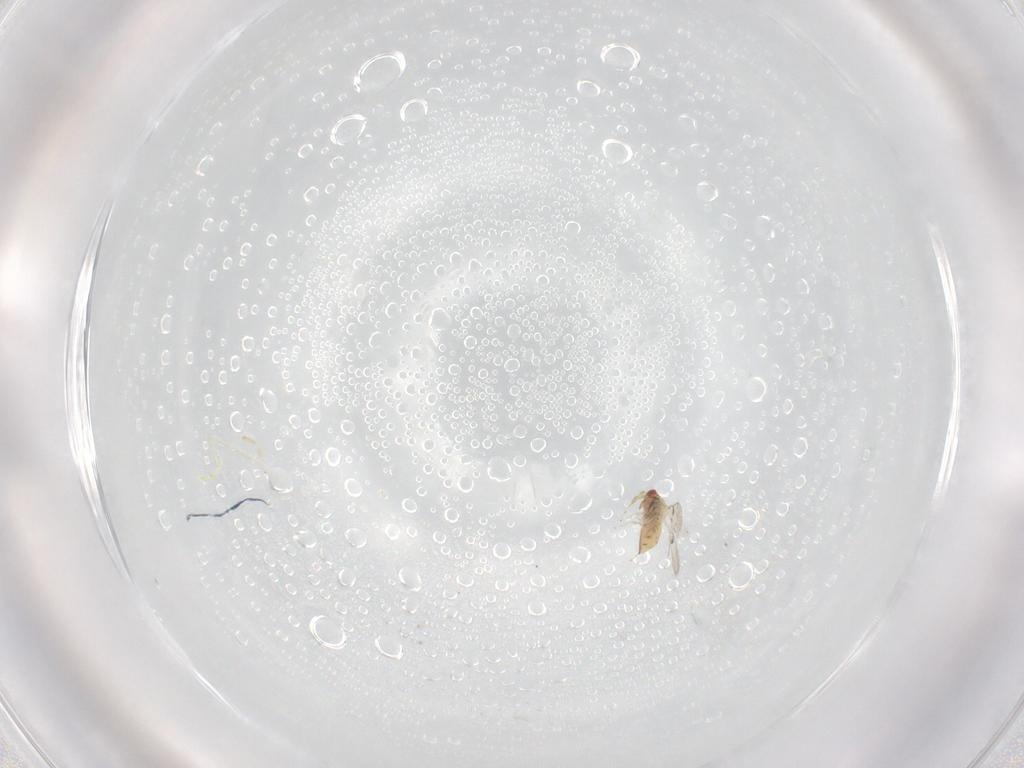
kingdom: Animalia
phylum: Arthropoda
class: Insecta
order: Hymenoptera
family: Trichogrammatidae
